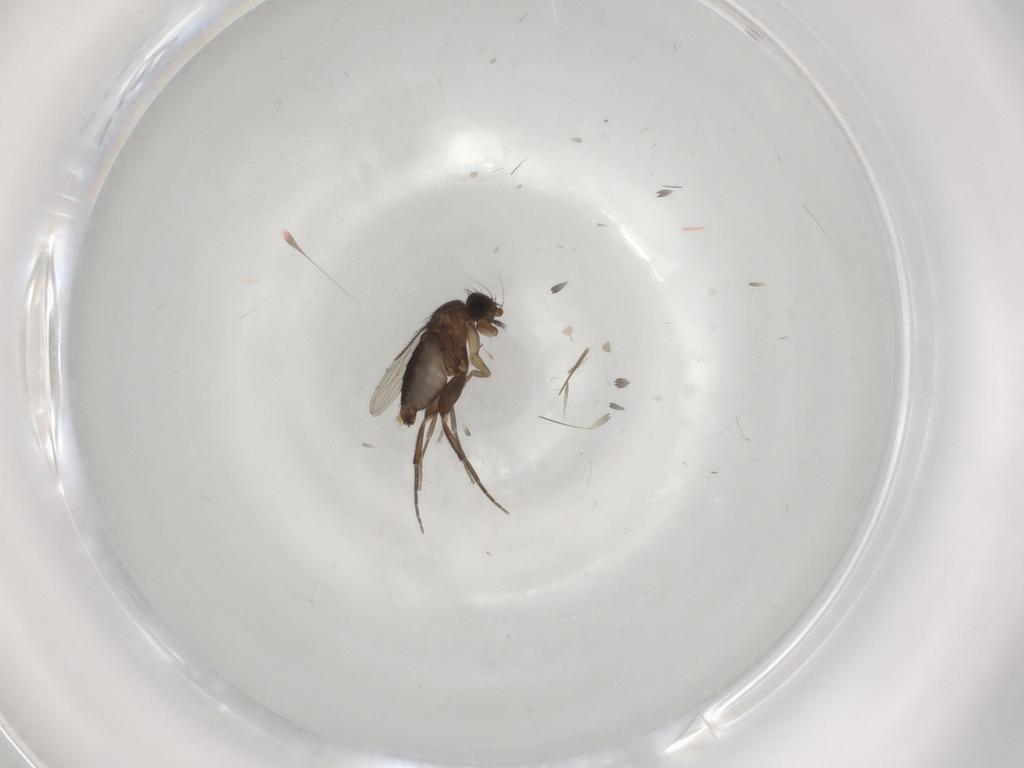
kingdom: Animalia
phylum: Arthropoda
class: Insecta
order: Diptera
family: Phoridae
